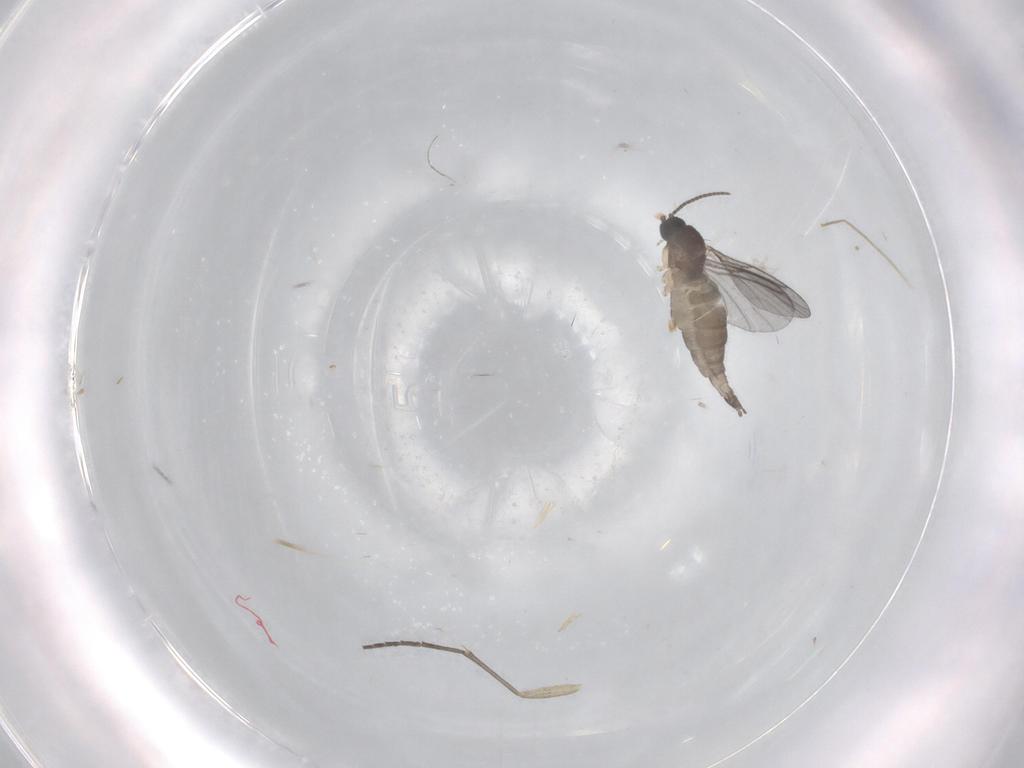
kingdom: Animalia
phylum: Arthropoda
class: Insecta
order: Diptera
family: Sciaridae
